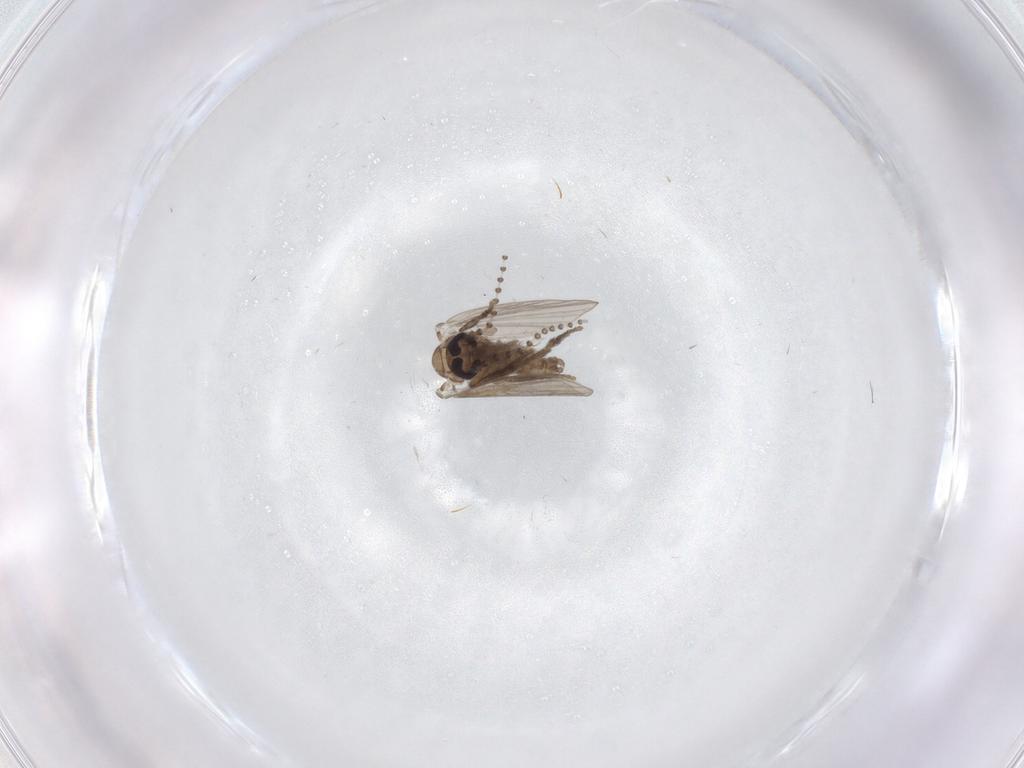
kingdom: Animalia
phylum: Arthropoda
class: Insecta
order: Diptera
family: Psychodidae
